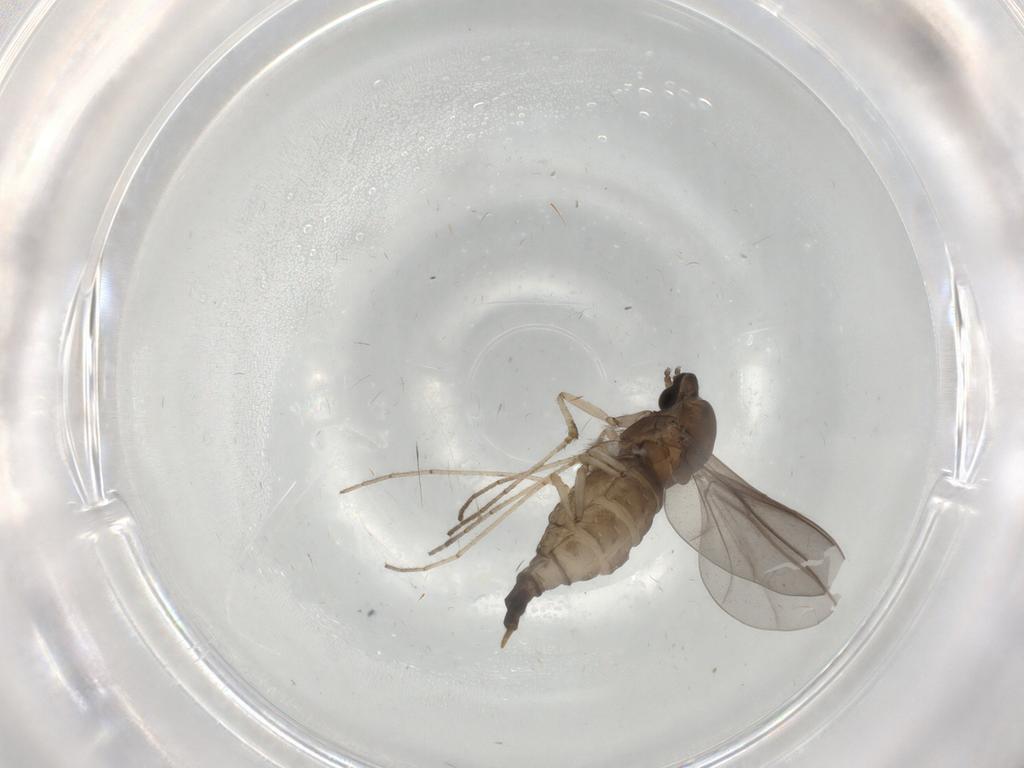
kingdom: Animalia
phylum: Arthropoda
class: Insecta
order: Diptera
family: Cecidomyiidae
